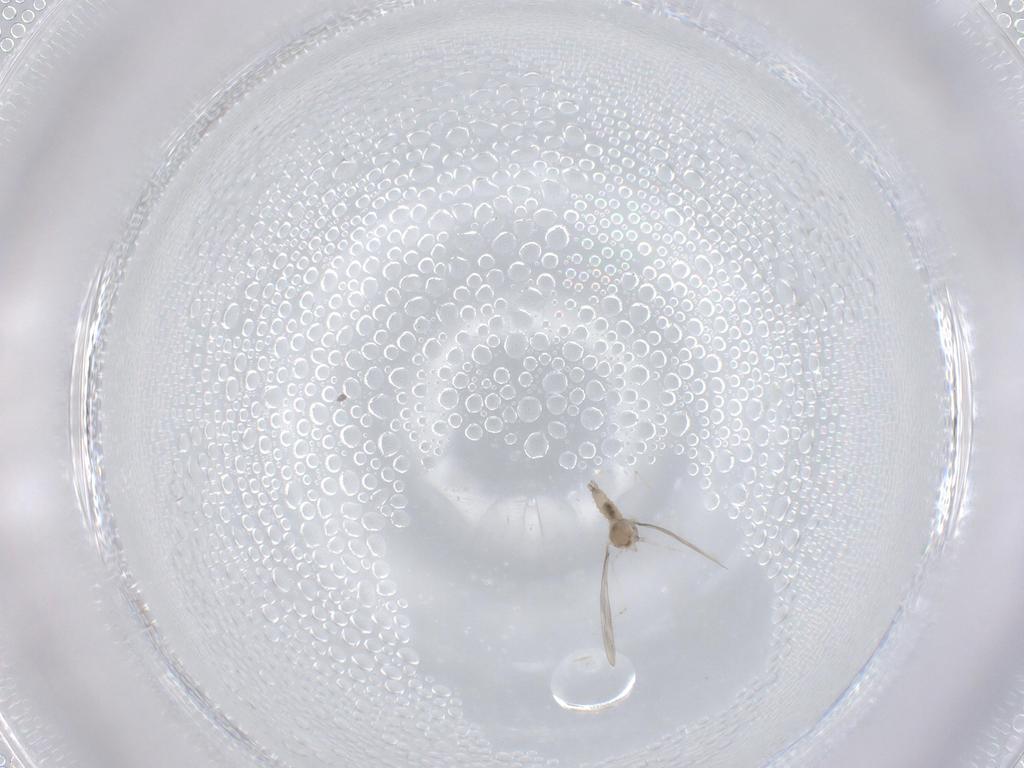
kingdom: Animalia
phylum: Arthropoda
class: Insecta
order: Diptera
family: Cecidomyiidae
